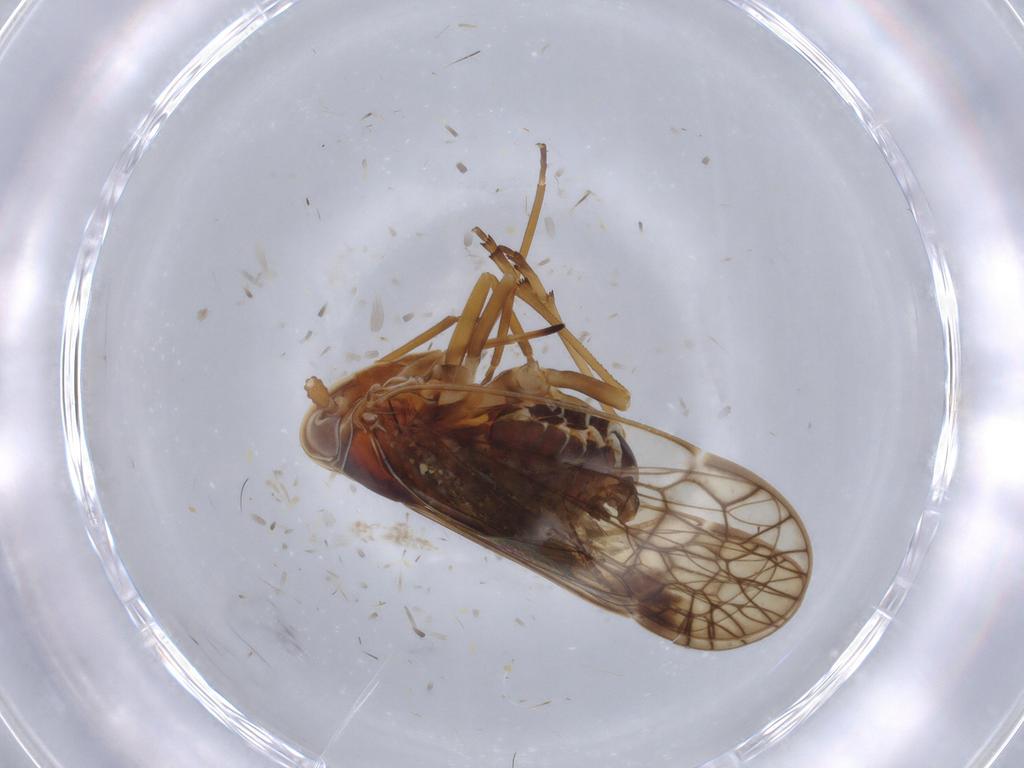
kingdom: Animalia
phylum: Arthropoda
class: Insecta
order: Hemiptera
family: Kinnaridae
